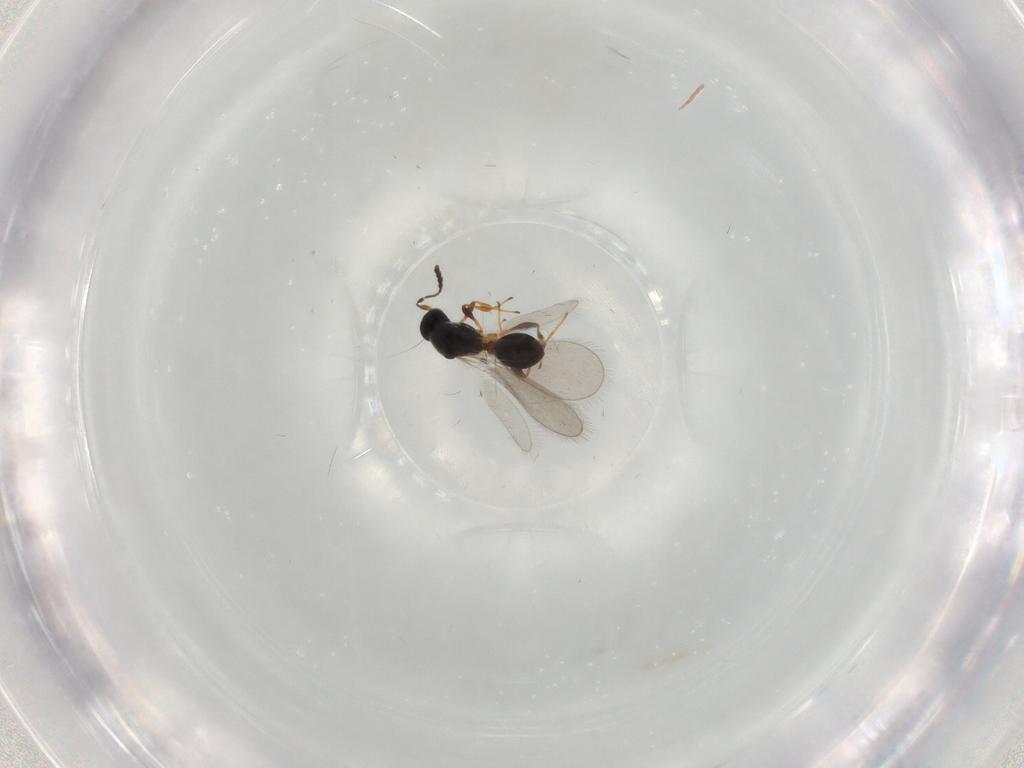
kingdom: Animalia
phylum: Arthropoda
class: Insecta
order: Hymenoptera
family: Platygastridae
